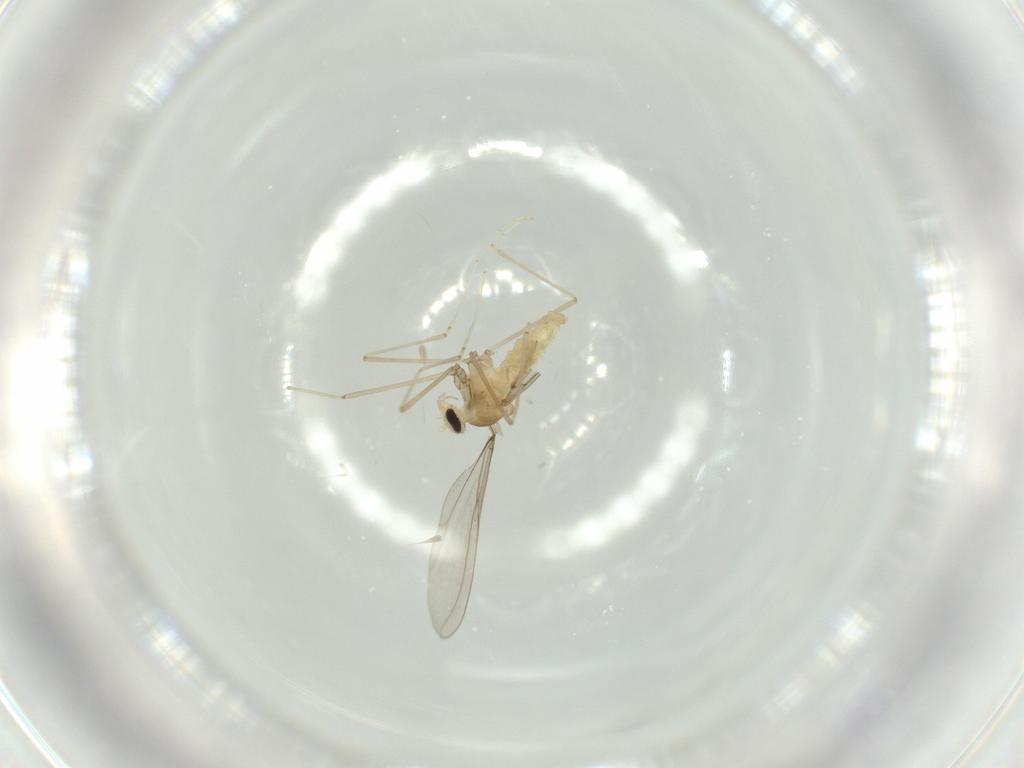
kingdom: Animalia
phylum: Arthropoda
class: Insecta
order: Diptera
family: Cecidomyiidae
